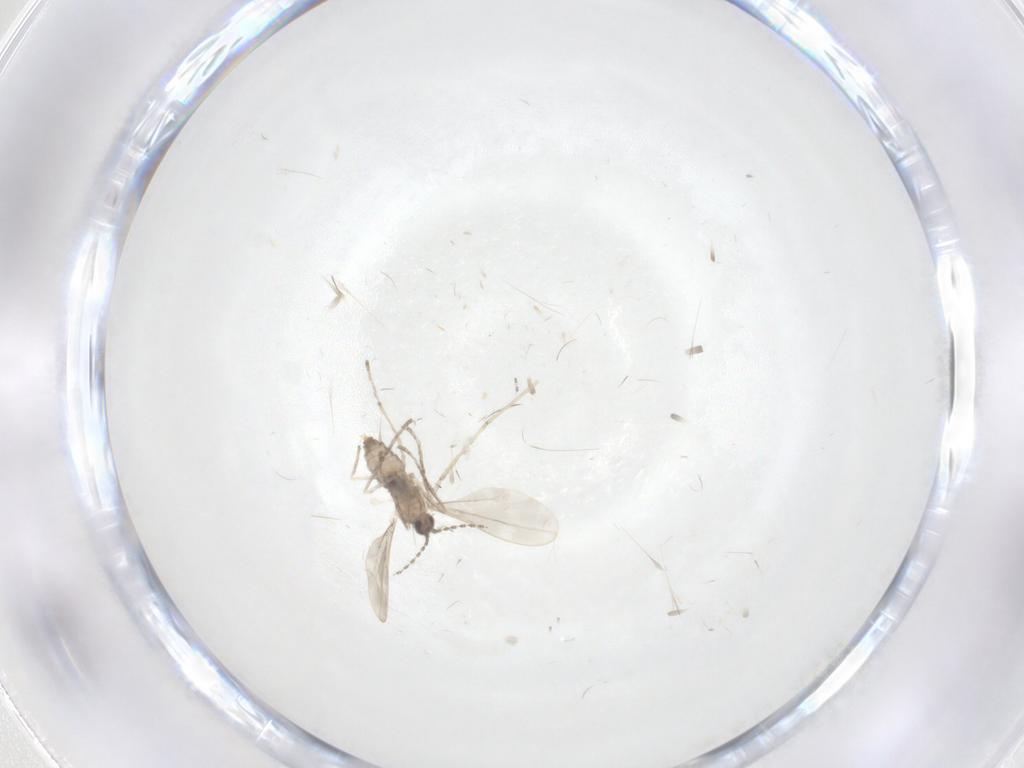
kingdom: Animalia
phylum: Arthropoda
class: Insecta
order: Diptera
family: Cecidomyiidae
